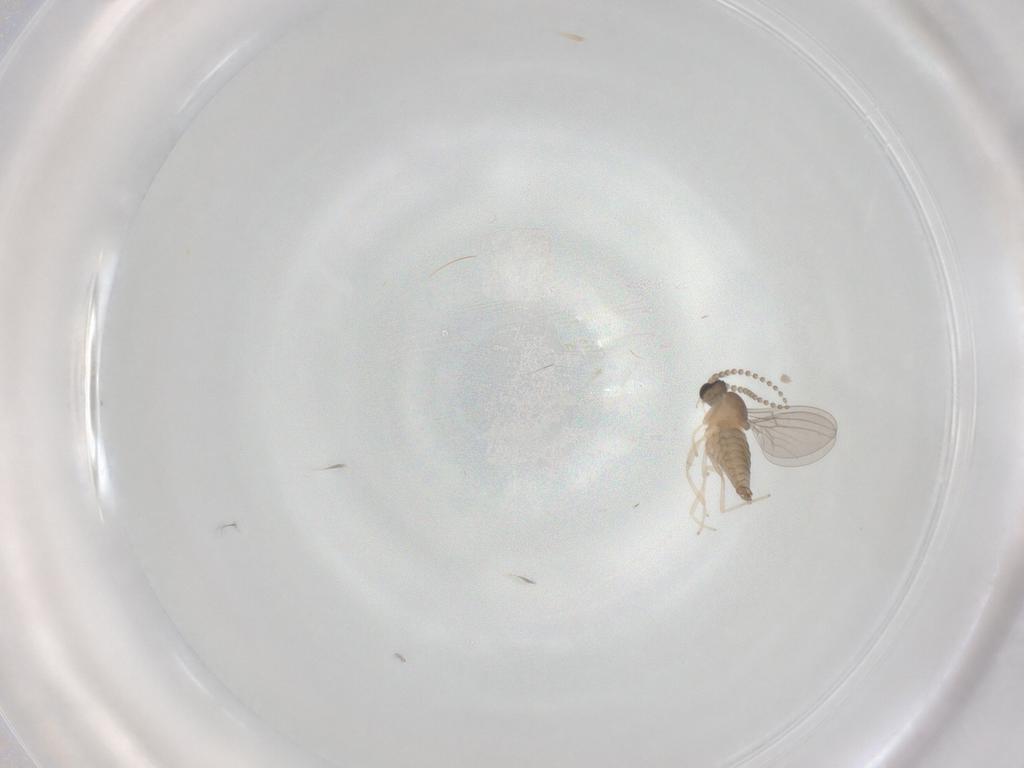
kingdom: Animalia
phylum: Arthropoda
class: Insecta
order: Diptera
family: Cecidomyiidae
